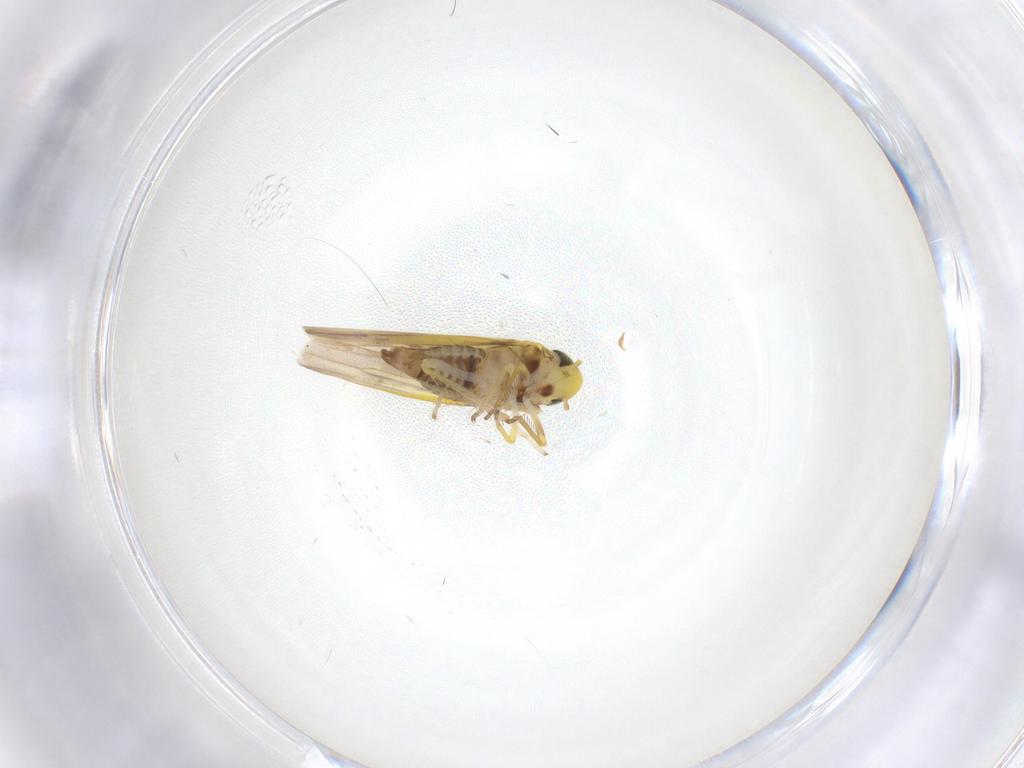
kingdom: Animalia
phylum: Arthropoda
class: Insecta
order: Hemiptera
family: Cicadellidae
